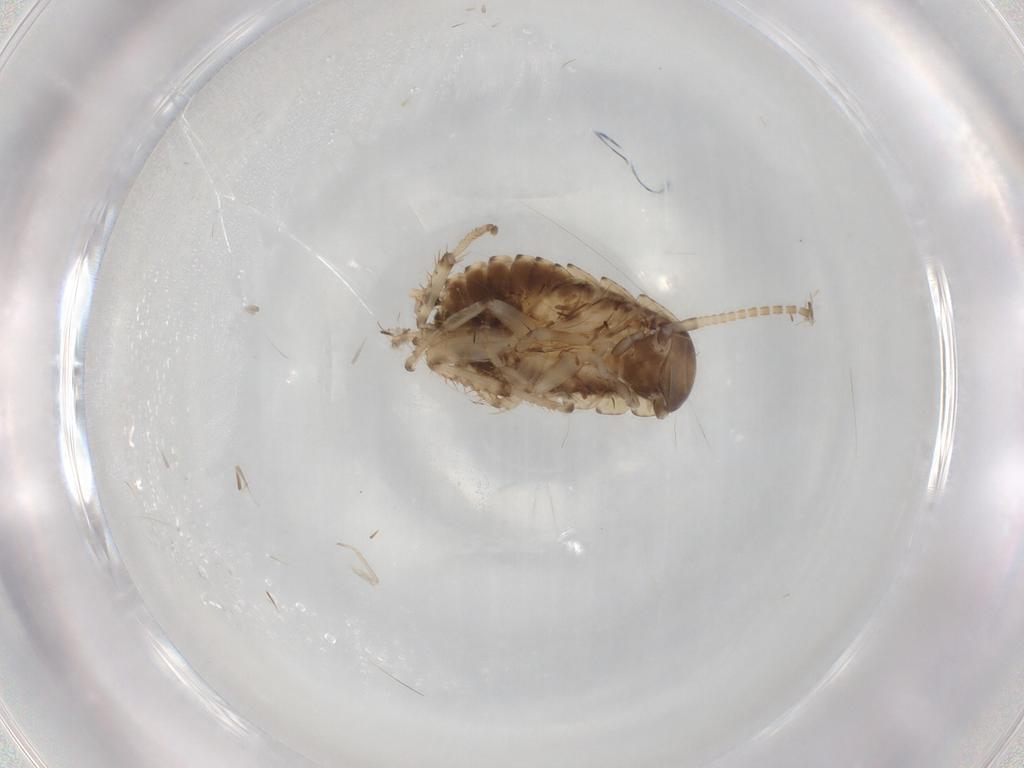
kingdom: Animalia
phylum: Arthropoda
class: Insecta
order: Blattodea
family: Blaberidae
